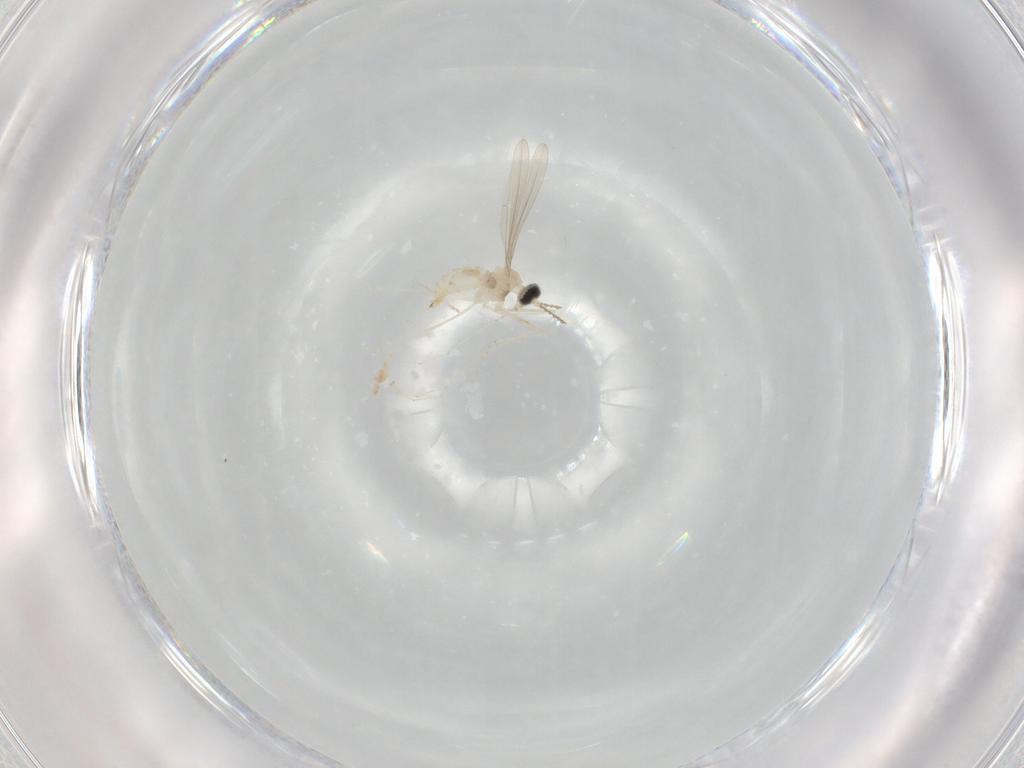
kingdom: Animalia
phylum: Arthropoda
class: Insecta
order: Diptera
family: Cecidomyiidae
